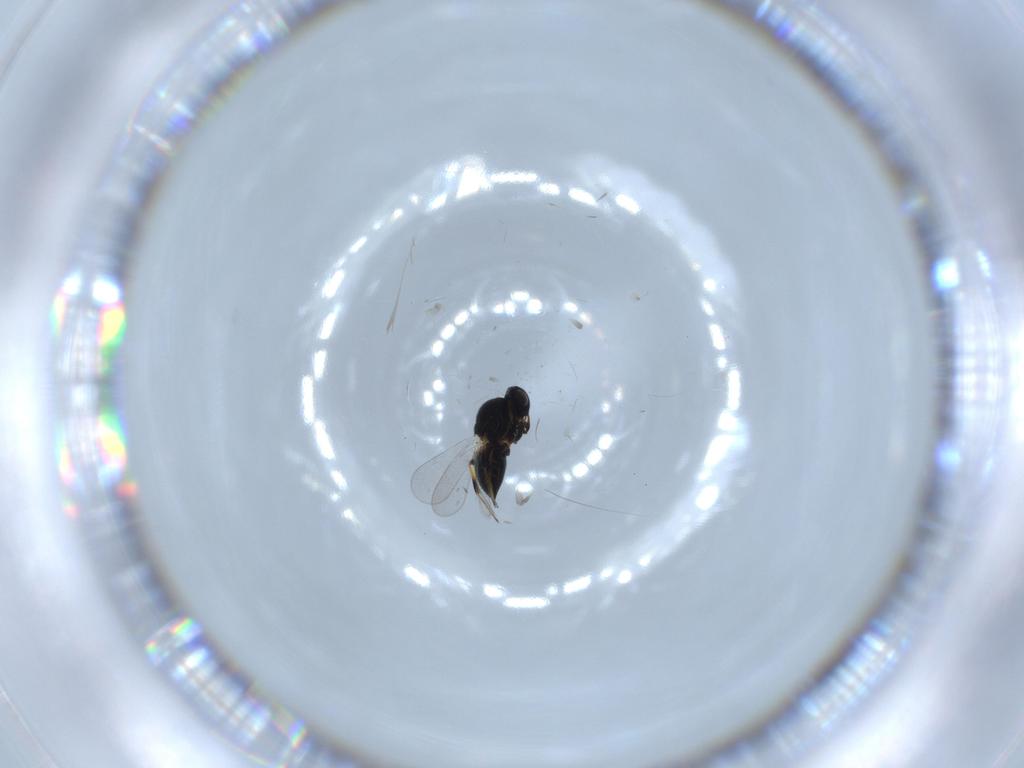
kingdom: Animalia
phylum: Arthropoda
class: Insecta
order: Hymenoptera
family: Platygastridae
